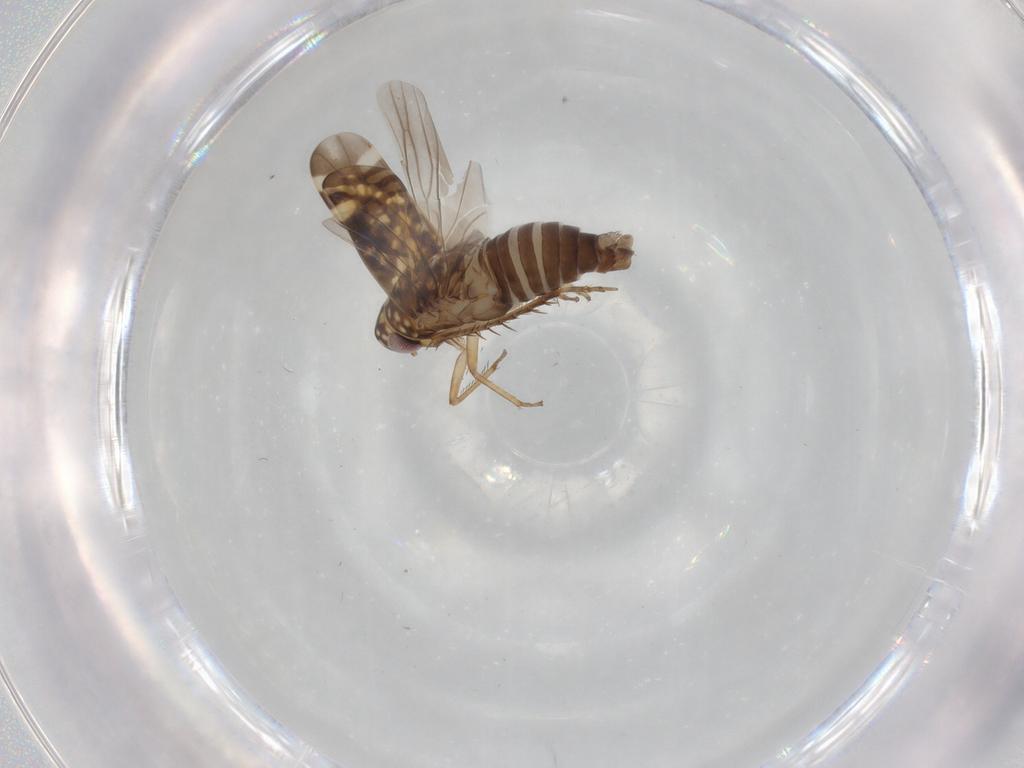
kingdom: Animalia
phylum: Arthropoda
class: Insecta
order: Hemiptera
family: Cicadellidae
